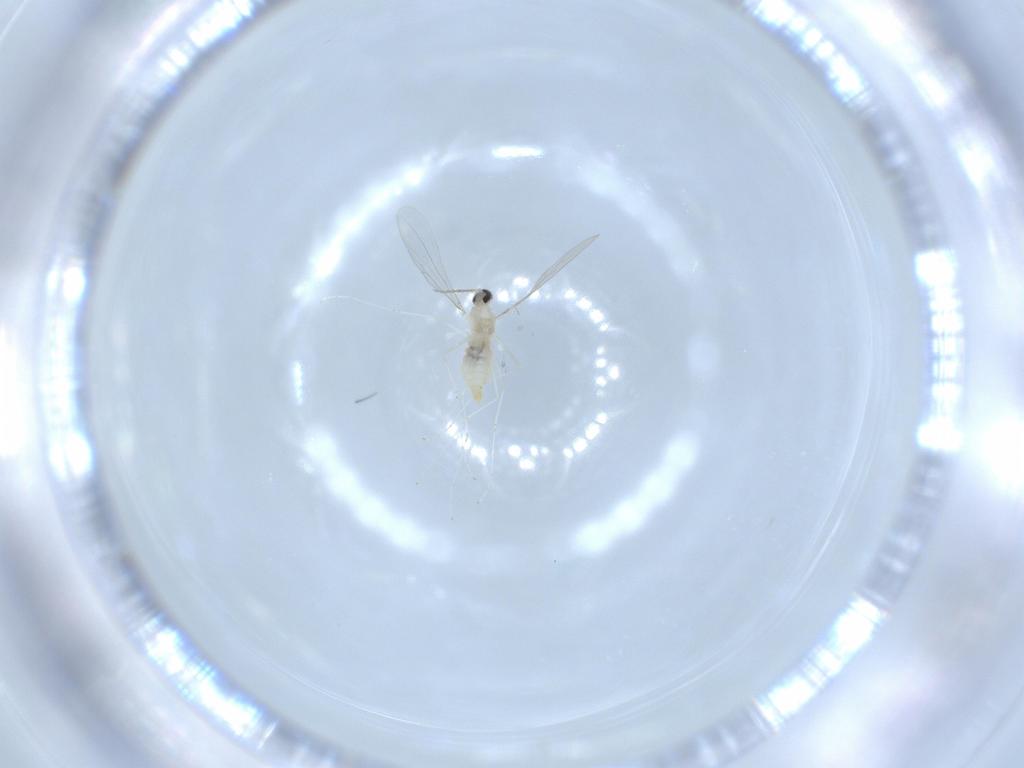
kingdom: Animalia
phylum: Arthropoda
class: Insecta
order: Diptera
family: Cecidomyiidae
